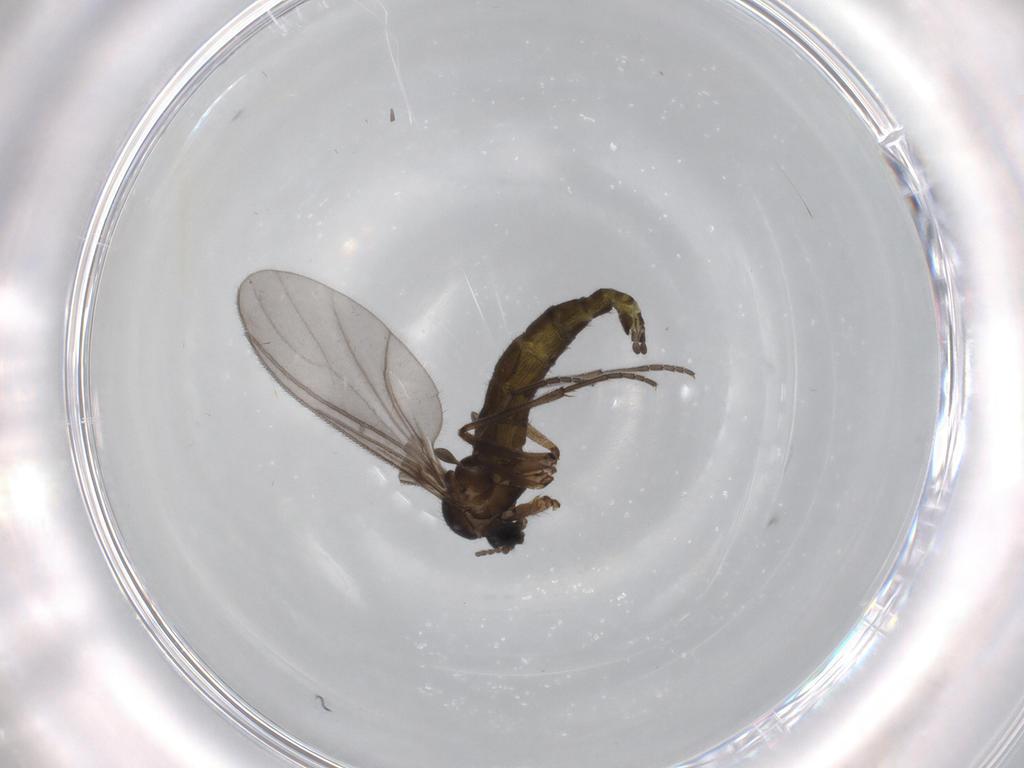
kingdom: Animalia
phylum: Arthropoda
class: Insecta
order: Diptera
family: Sciaridae
